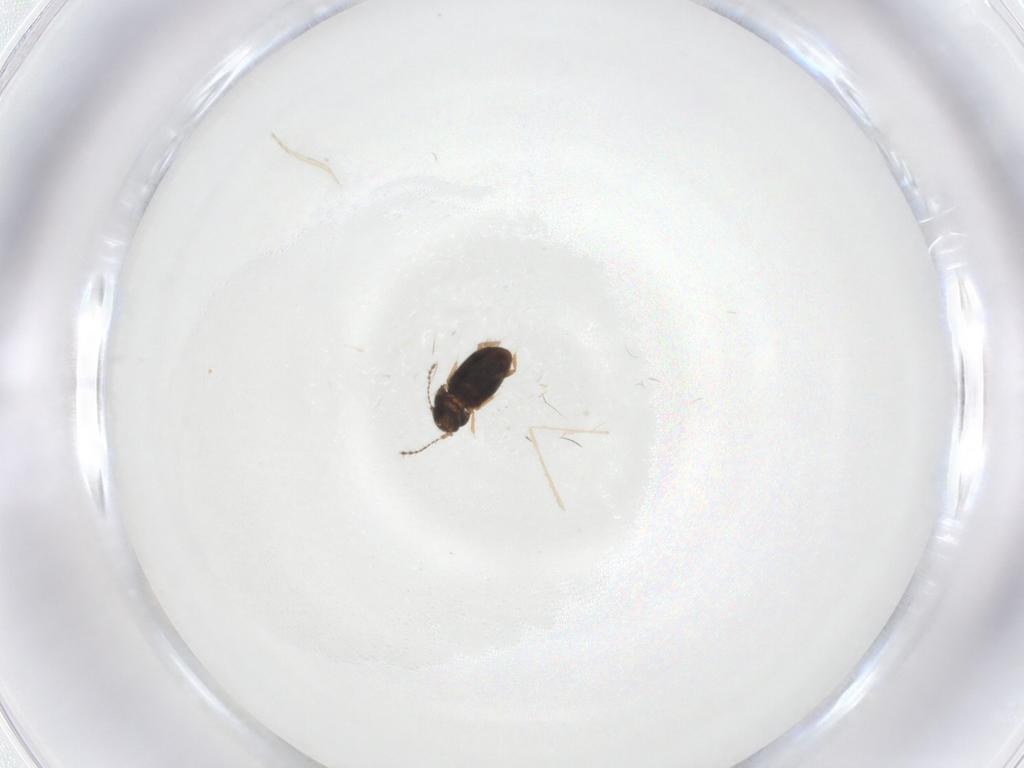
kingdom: Animalia
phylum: Arthropoda
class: Insecta
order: Diptera
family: Cecidomyiidae
